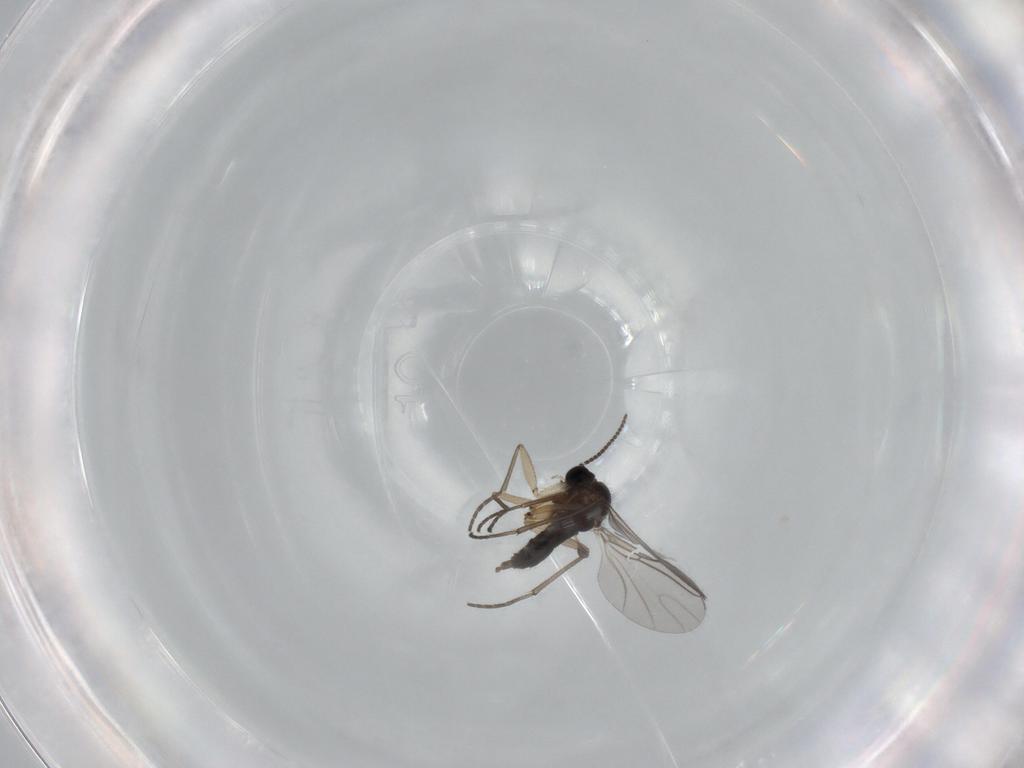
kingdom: Animalia
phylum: Arthropoda
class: Insecta
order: Diptera
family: Sciaridae
